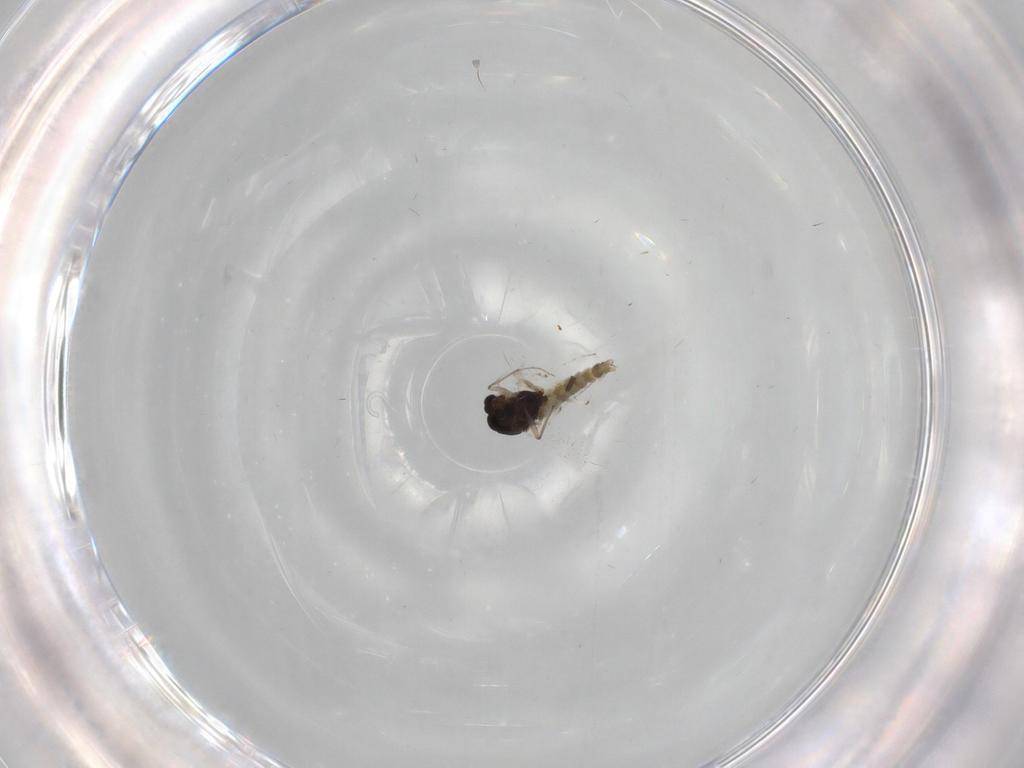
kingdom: Animalia
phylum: Arthropoda
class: Insecta
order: Diptera
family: Chironomidae
